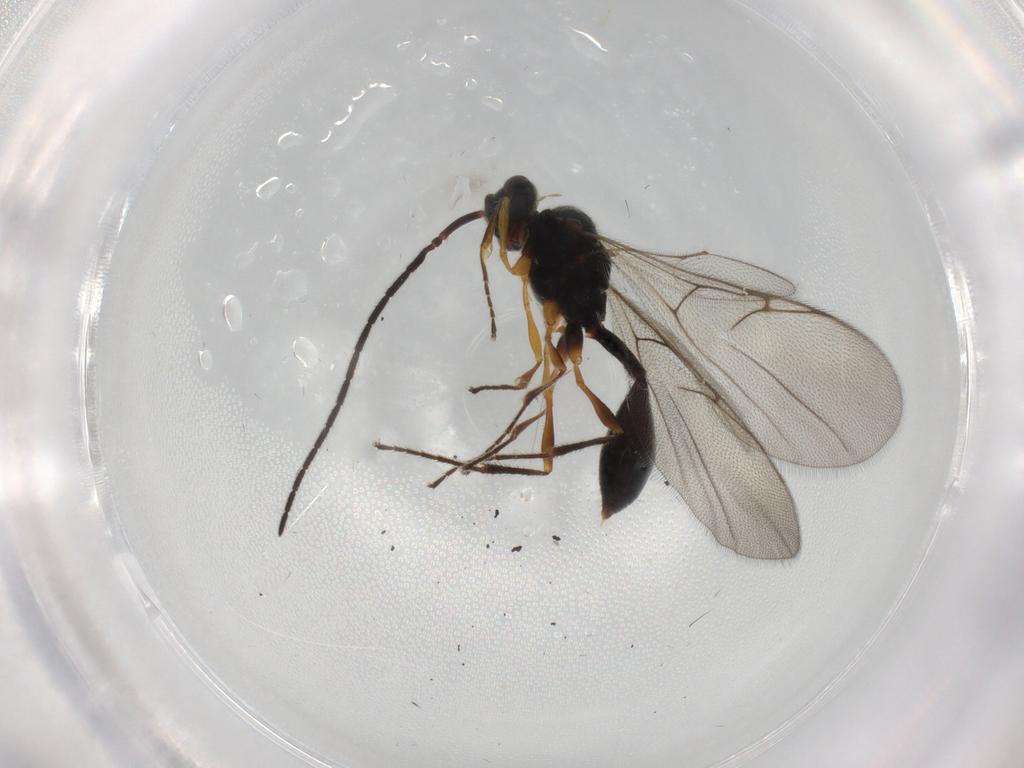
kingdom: Animalia
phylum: Arthropoda
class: Insecta
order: Hymenoptera
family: Diapriidae
